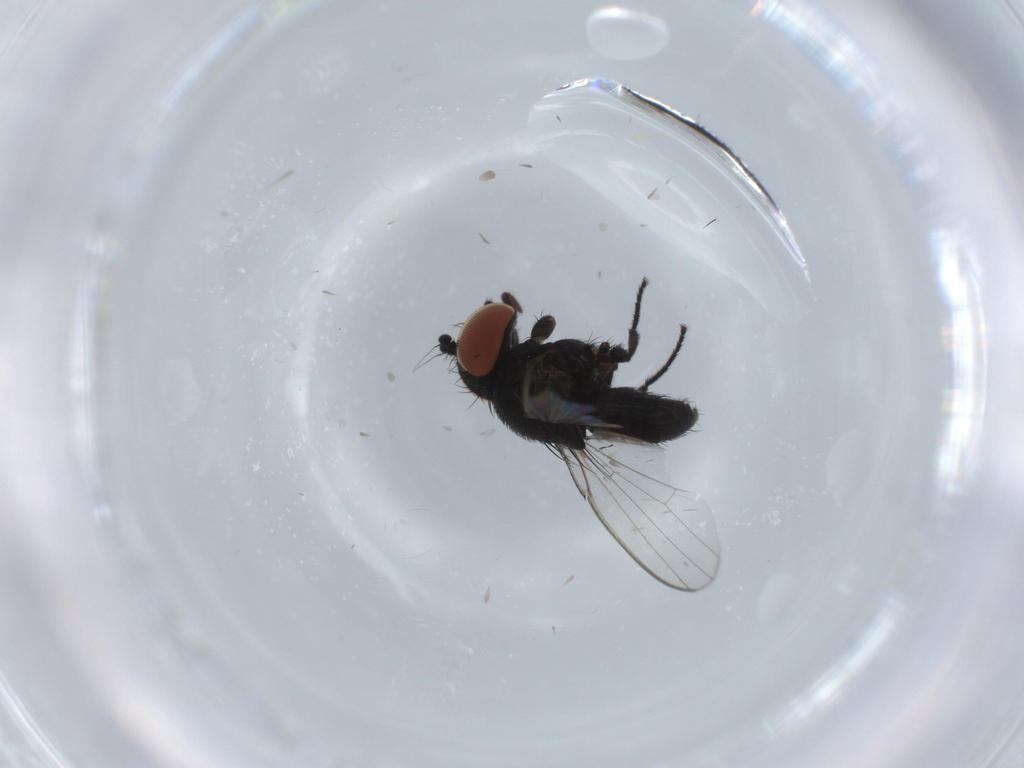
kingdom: Animalia
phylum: Arthropoda
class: Insecta
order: Diptera
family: Milichiidae
